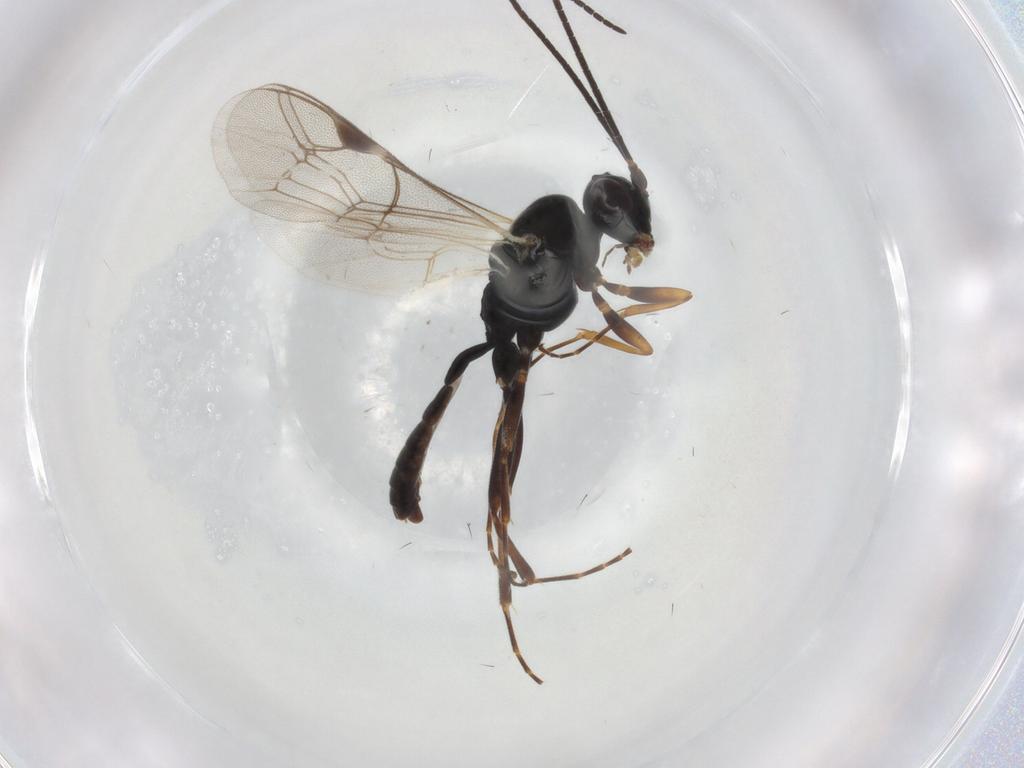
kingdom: Animalia
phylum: Arthropoda
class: Insecta
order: Hymenoptera
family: Ichneumonidae
